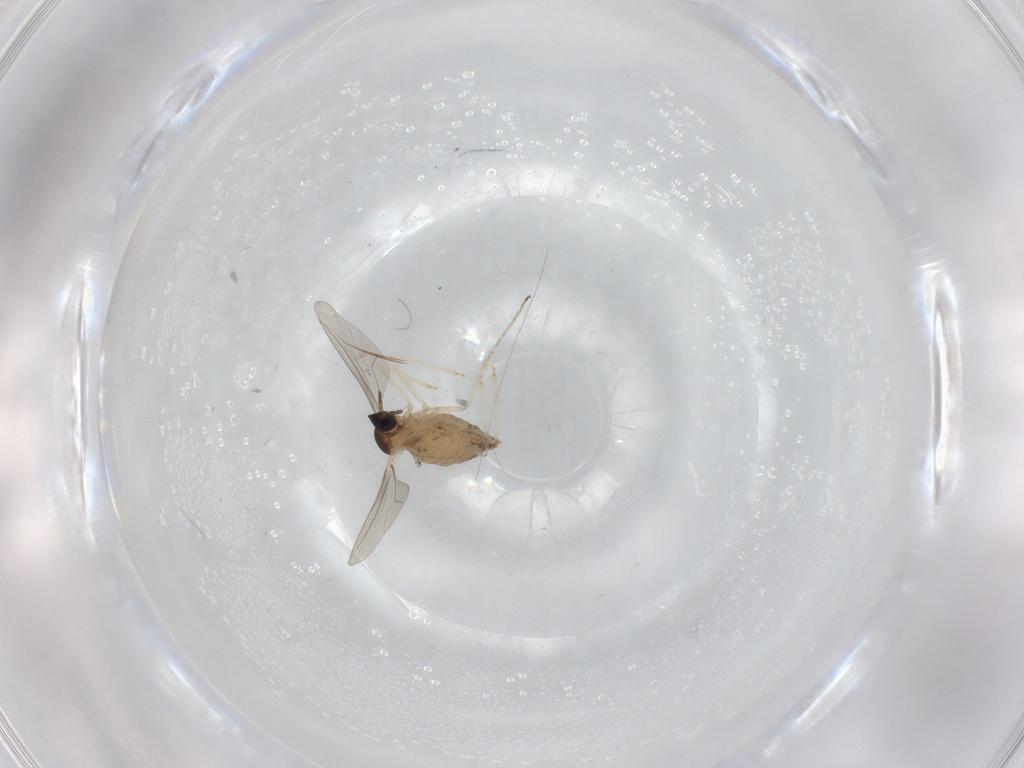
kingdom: Animalia
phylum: Arthropoda
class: Insecta
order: Diptera
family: Cecidomyiidae
